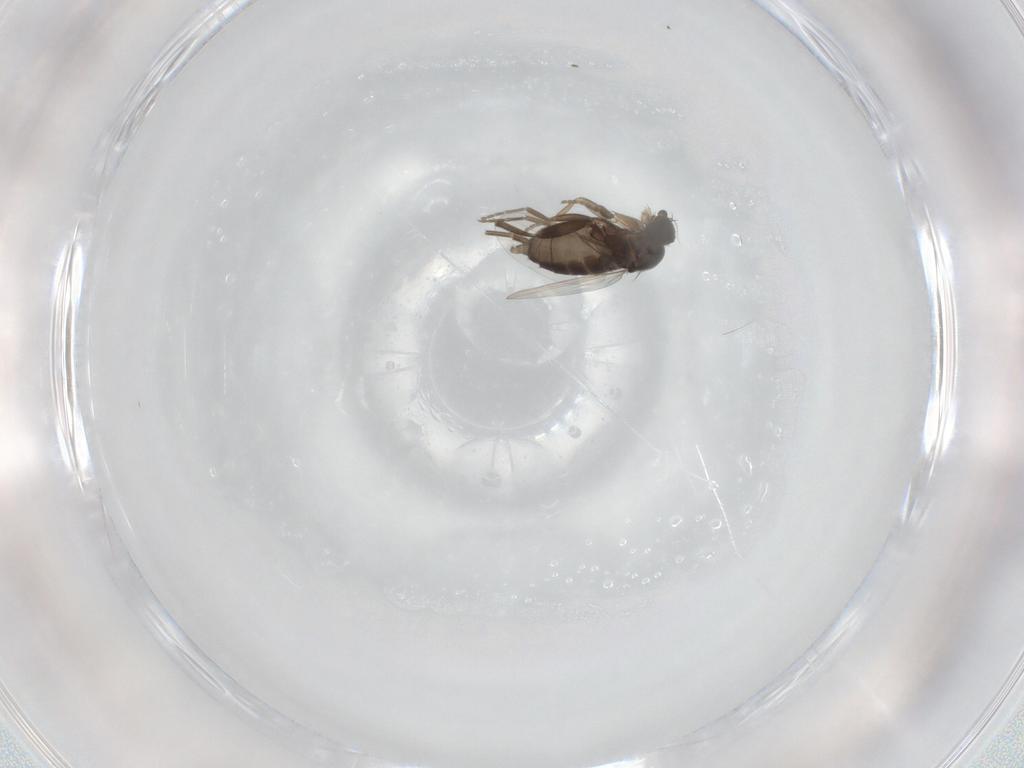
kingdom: Animalia
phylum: Arthropoda
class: Insecta
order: Diptera
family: Phoridae
